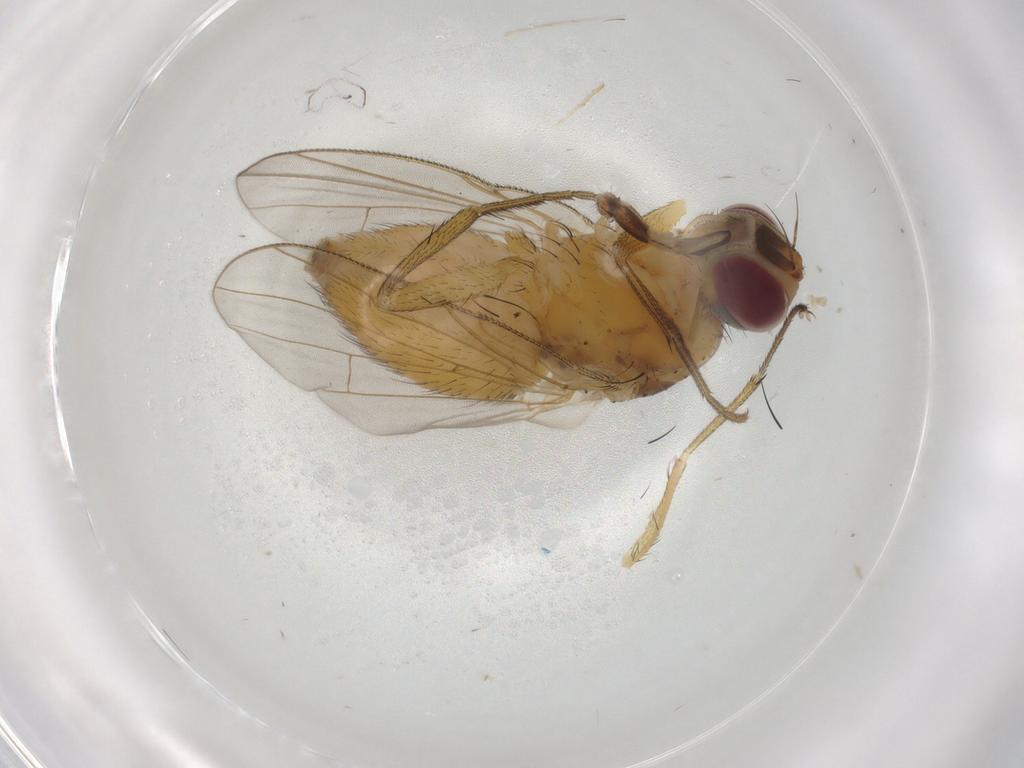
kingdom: Animalia
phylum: Arthropoda
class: Insecta
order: Diptera
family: Muscidae
